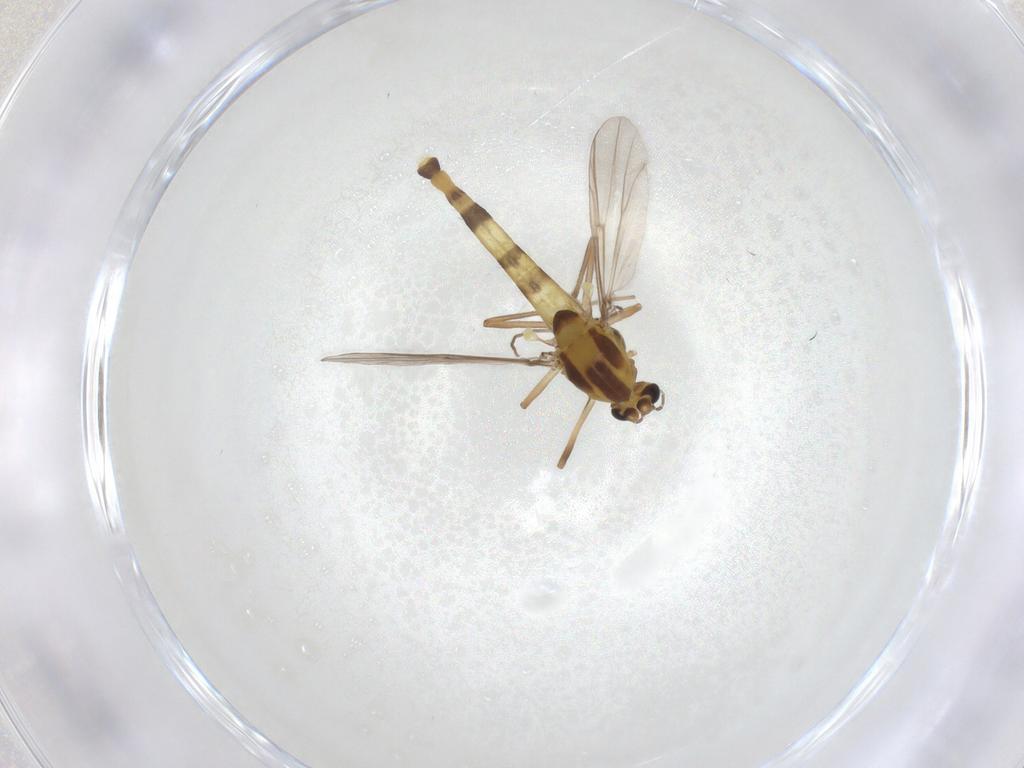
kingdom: Animalia
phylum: Arthropoda
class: Insecta
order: Diptera
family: Chironomidae
